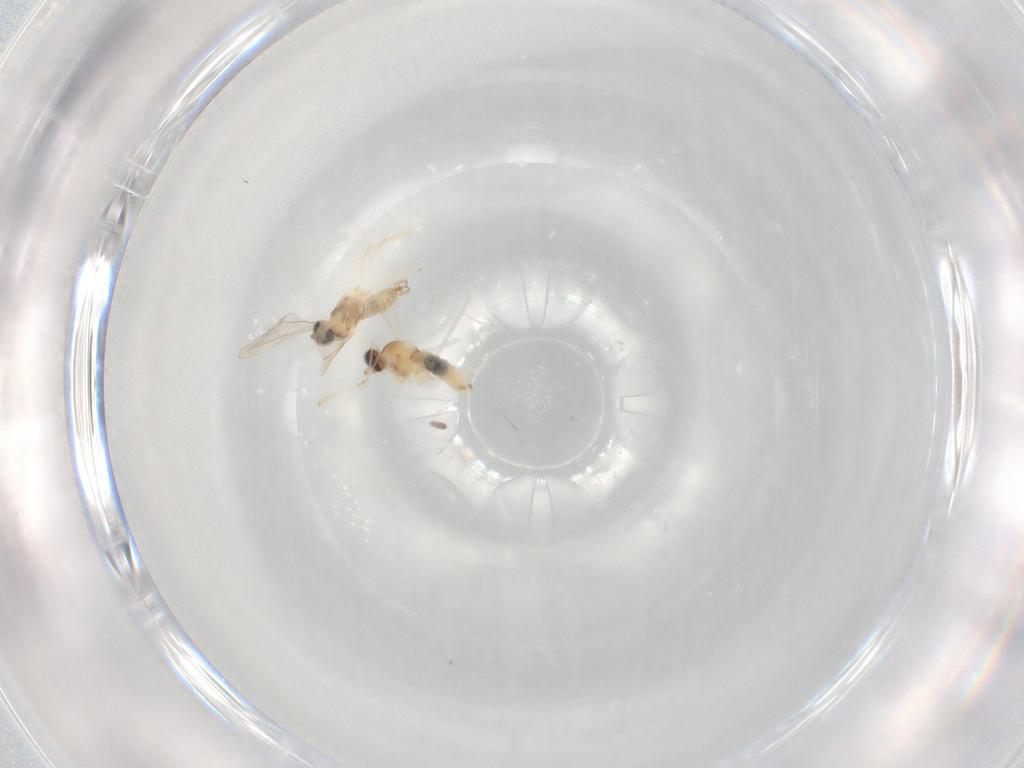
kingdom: Animalia
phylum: Arthropoda
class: Insecta
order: Diptera
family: Cecidomyiidae
